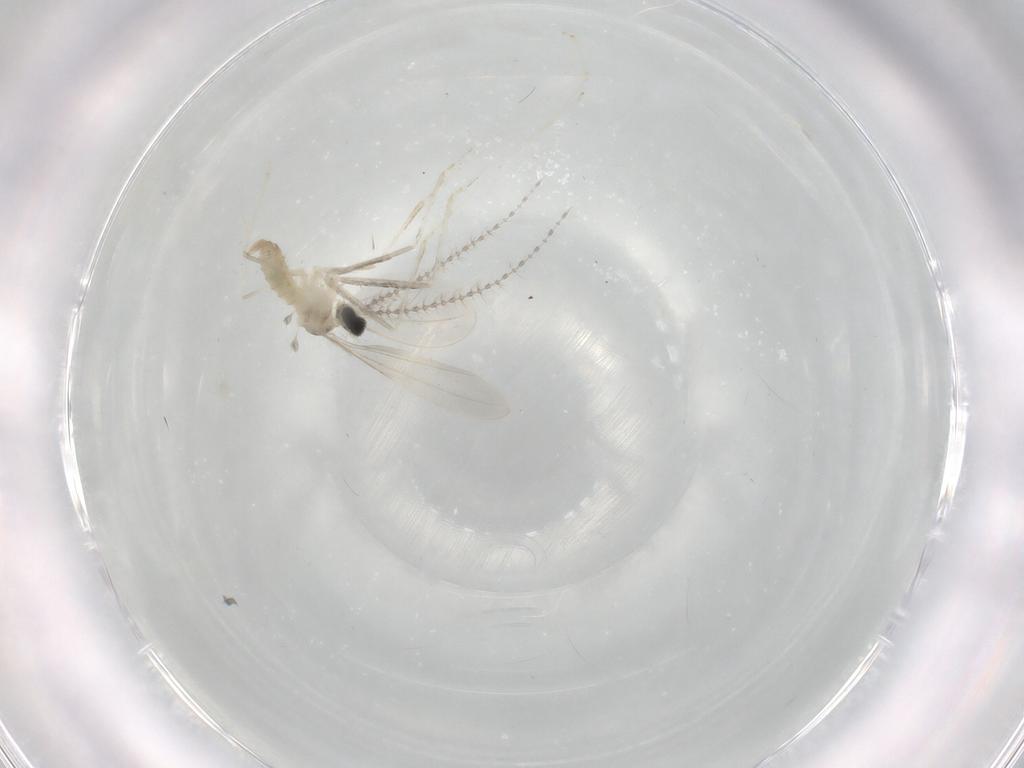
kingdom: Animalia
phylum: Arthropoda
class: Insecta
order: Diptera
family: Cecidomyiidae
